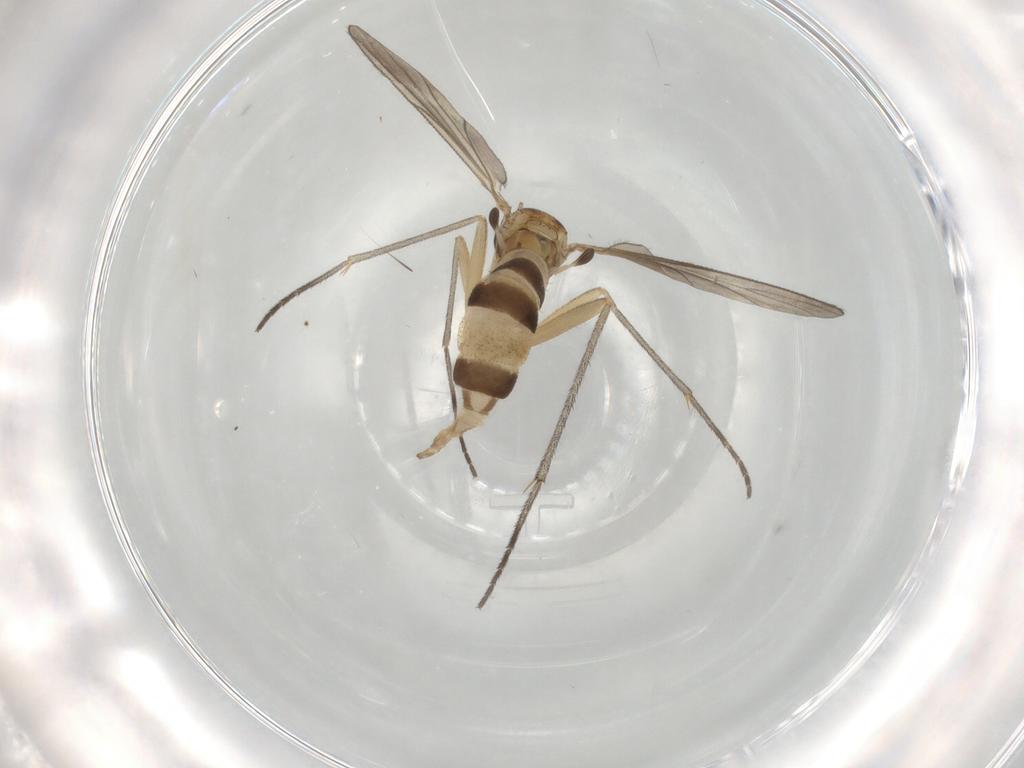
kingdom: Animalia
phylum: Arthropoda
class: Insecta
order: Diptera
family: Cecidomyiidae
